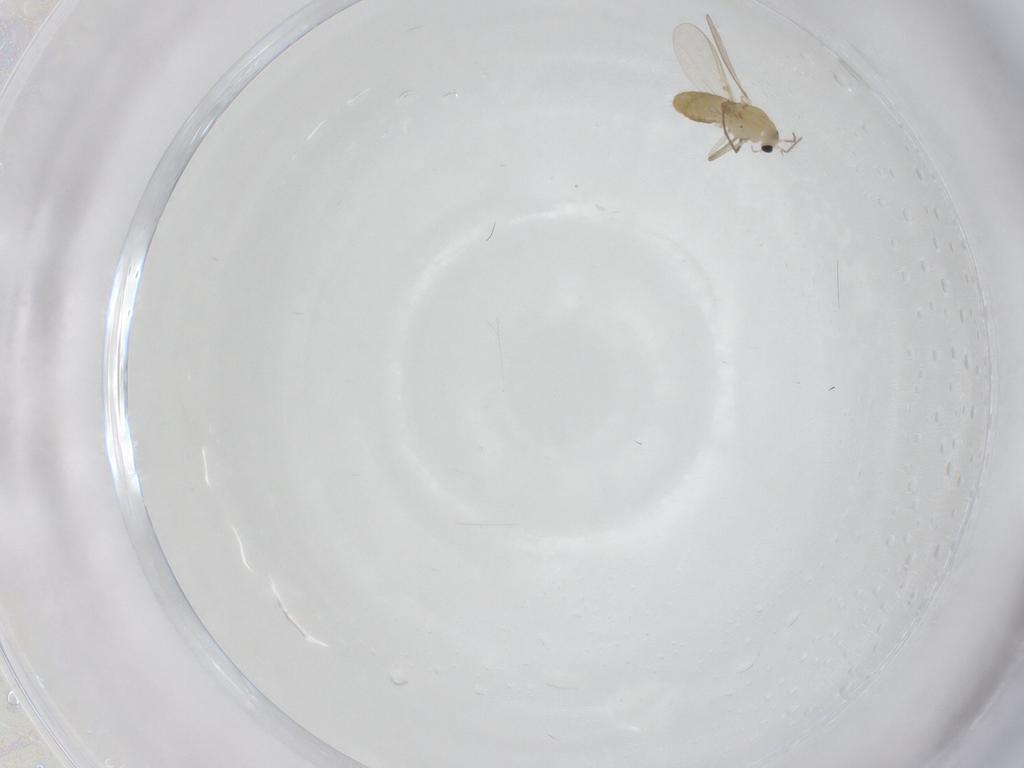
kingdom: Animalia
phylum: Arthropoda
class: Insecta
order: Diptera
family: Chironomidae
